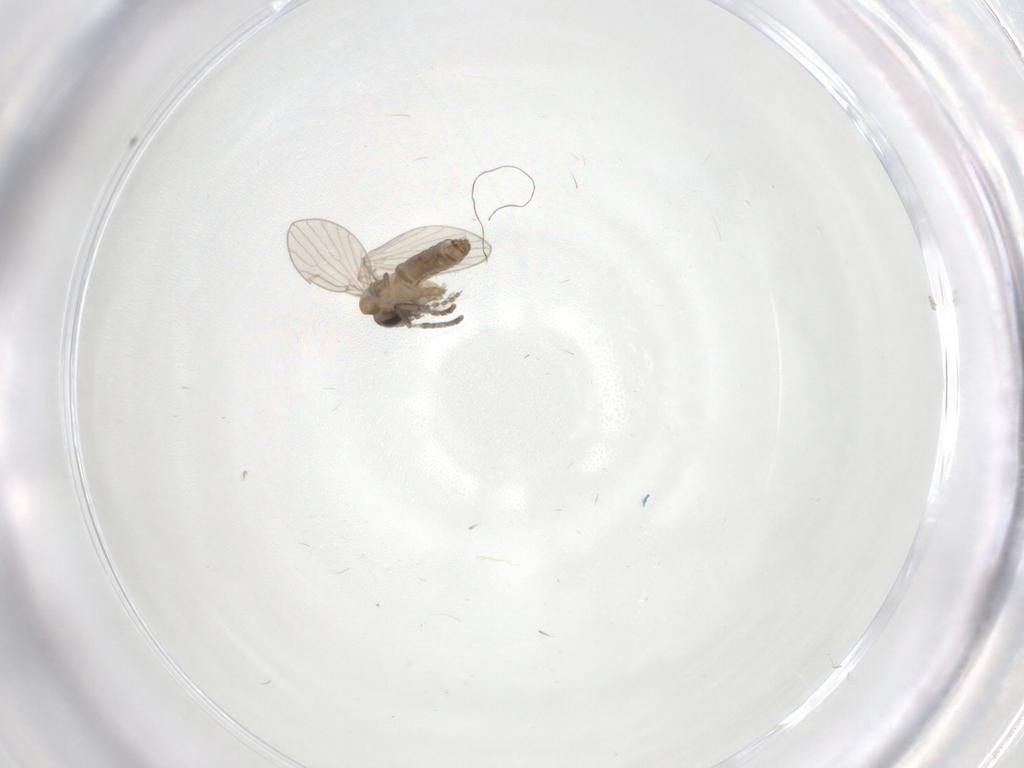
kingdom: Animalia
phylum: Arthropoda
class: Insecta
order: Diptera
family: Psychodidae
